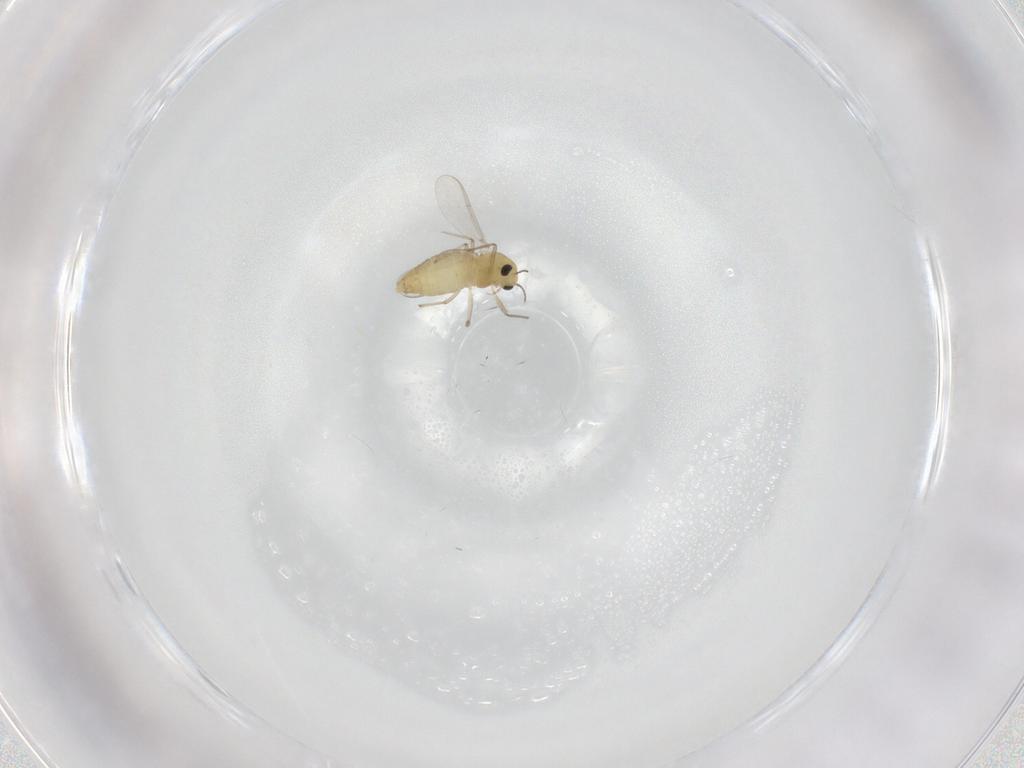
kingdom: Animalia
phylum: Arthropoda
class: Insecta
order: Diptera
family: Chironomidae
